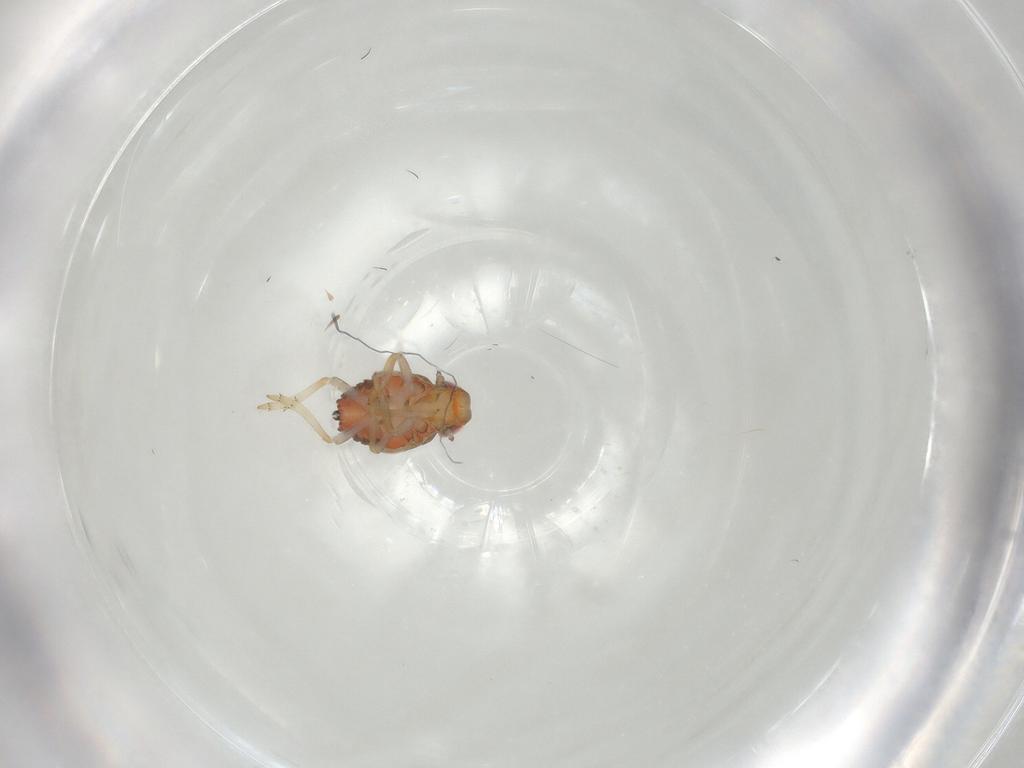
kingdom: Animalia
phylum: Arthropoda
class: Insecta
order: Hemiptera
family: Issidae
